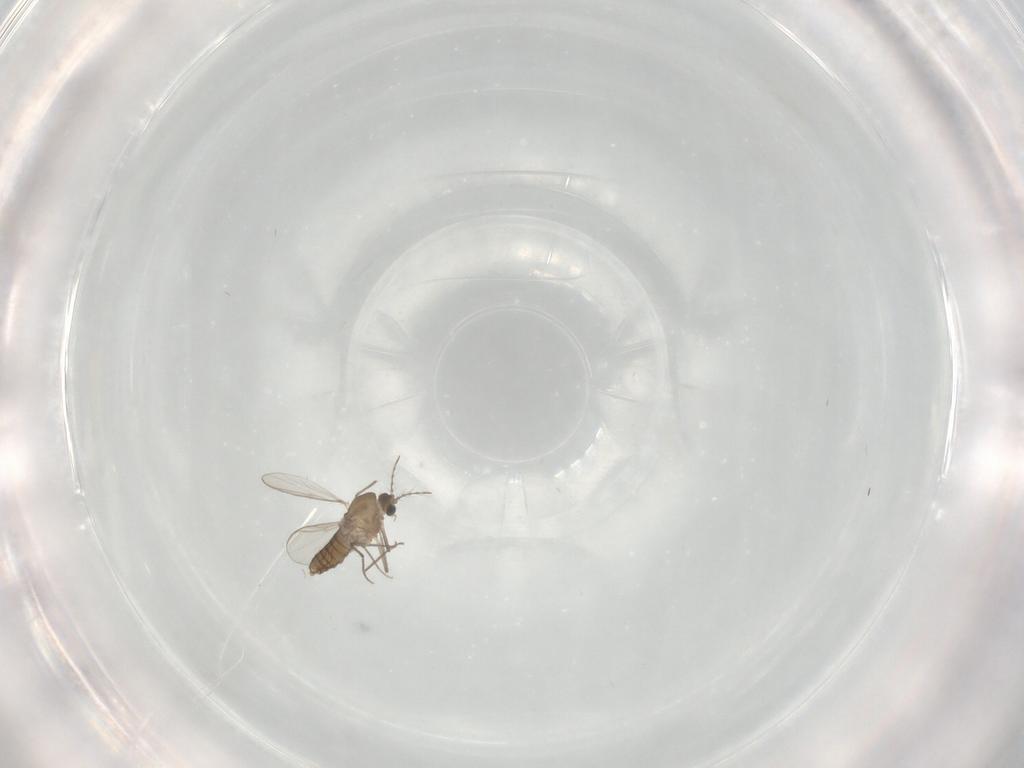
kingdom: Animalia
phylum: Arthropoda
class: Insecta
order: Diptera
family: Chironomidae
